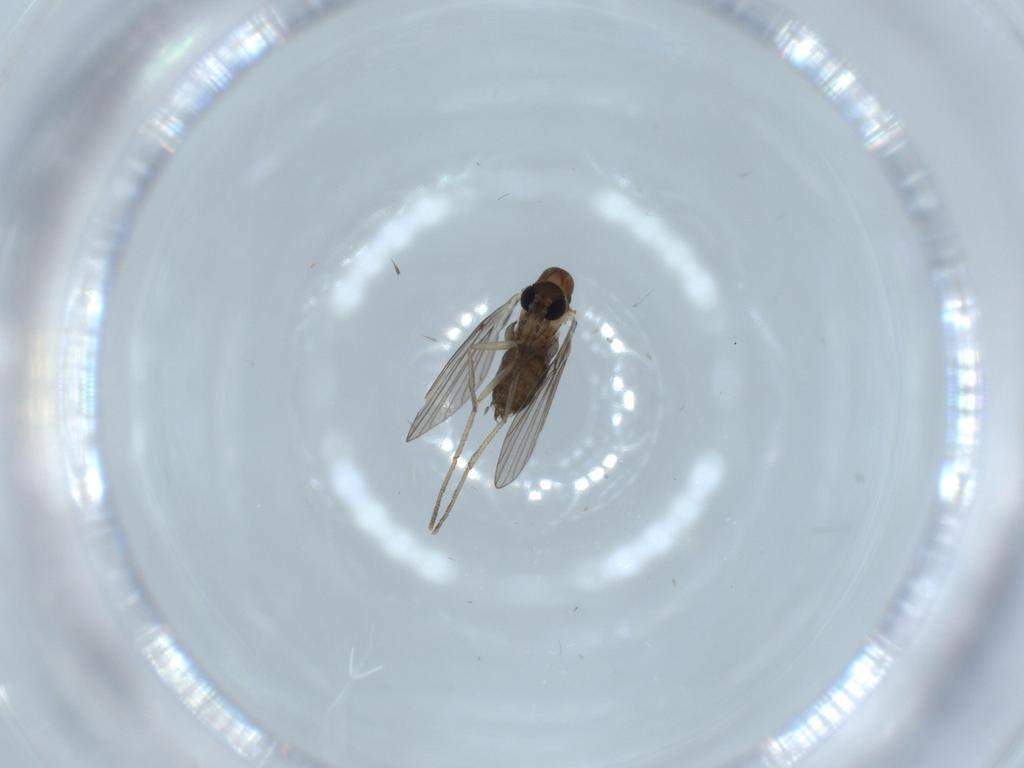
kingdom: Animalia
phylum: Arthropoda
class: Insecta
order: Diptera
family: Psychodidae
